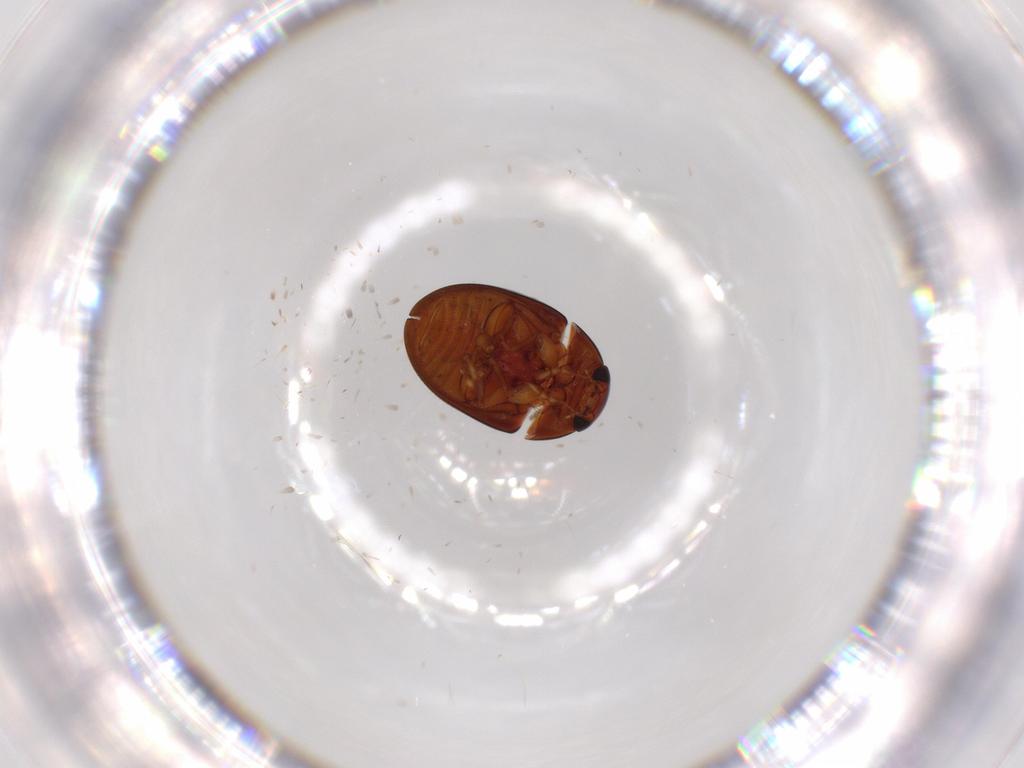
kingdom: Animalia
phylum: Arthropoda
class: Insecta
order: Coleoptera
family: Phalacridae
